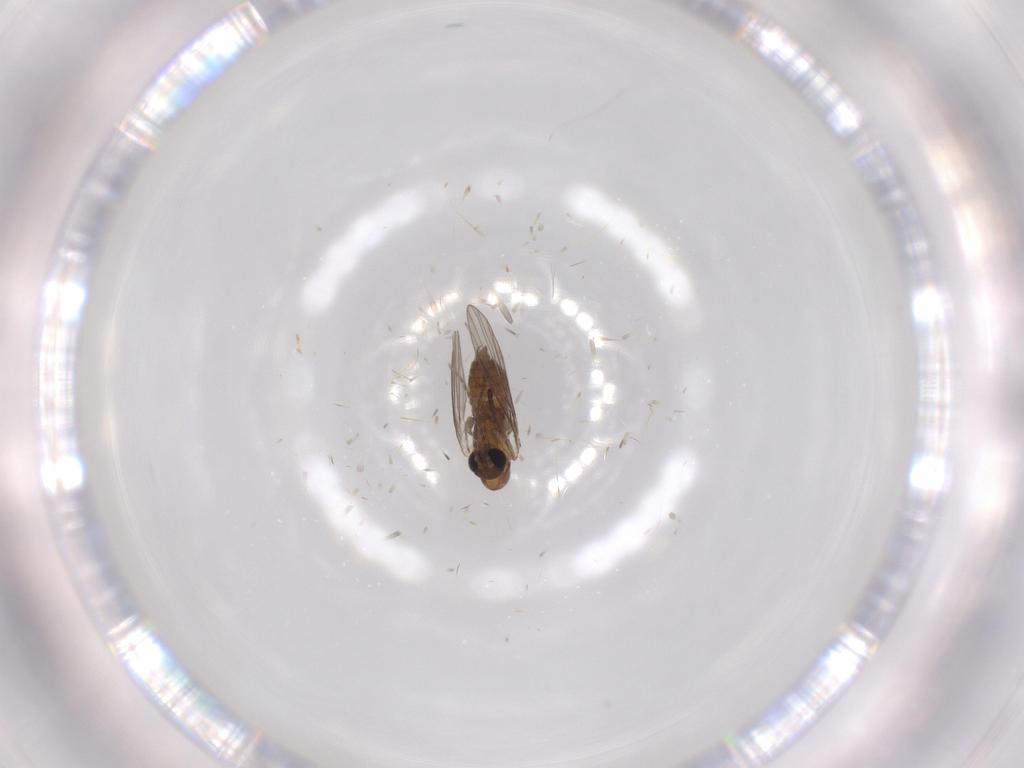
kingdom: Animalia
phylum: Arthropoda
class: Insecta
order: Diptera
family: Psychodidae
